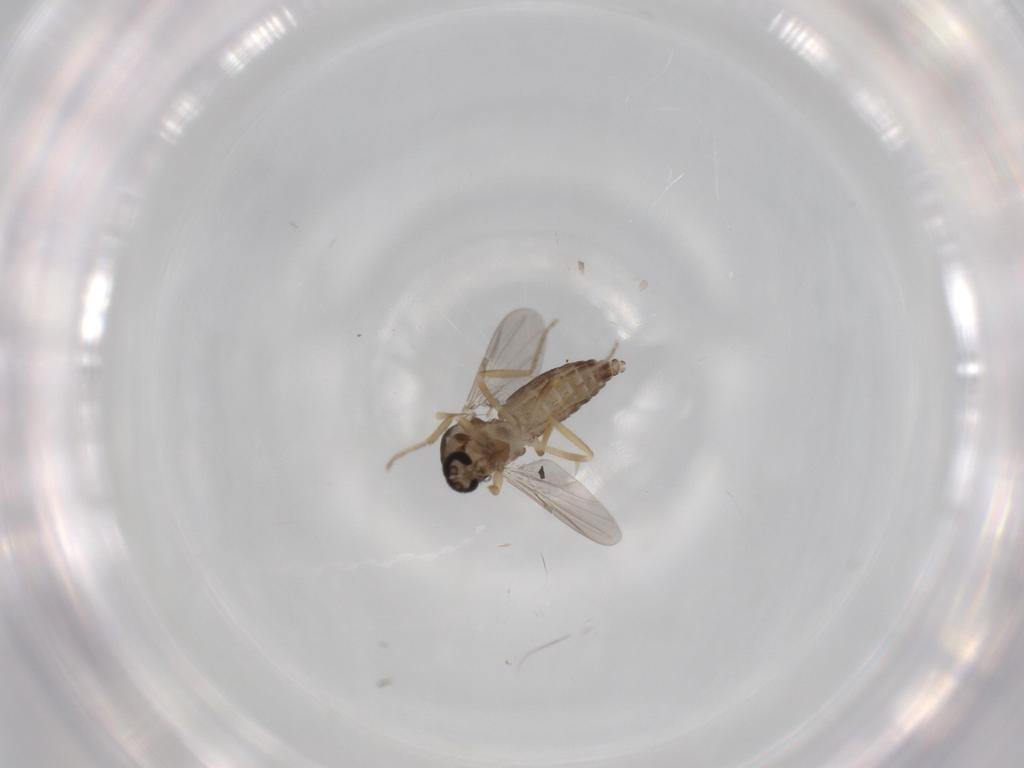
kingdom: Animalia
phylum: Arthropoda
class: Insecta
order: Diptera
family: Ceratopogonidae
